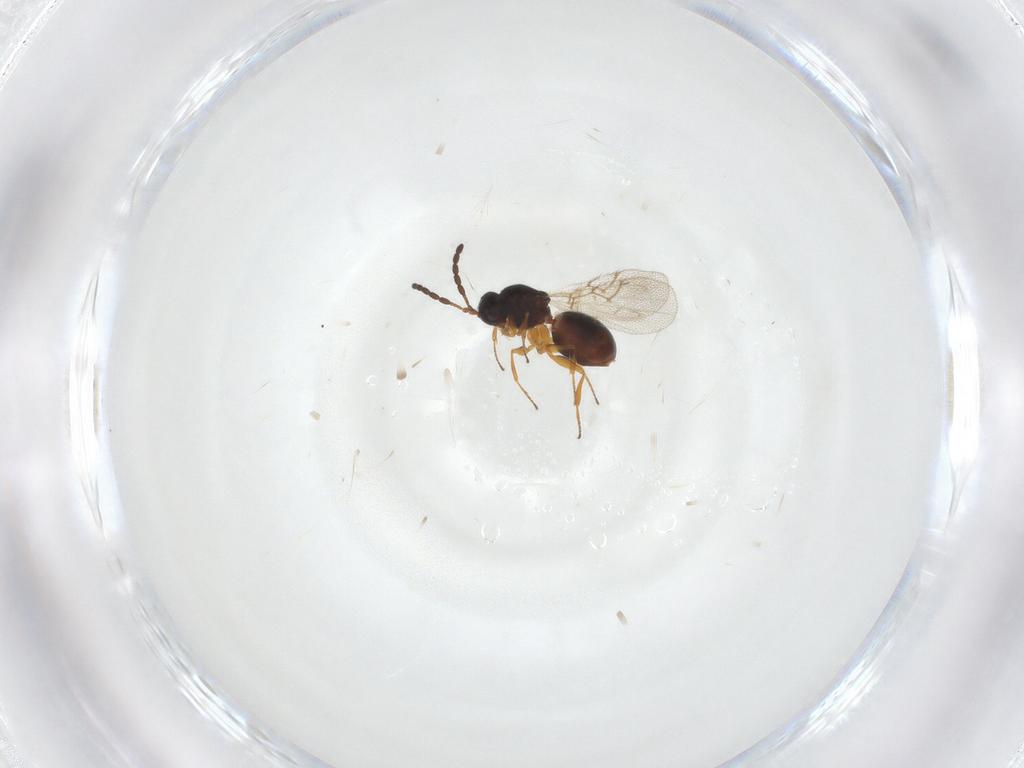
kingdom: Animalia
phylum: Arthropoda
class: Insecta
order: Hymenoptera
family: Figitidae
